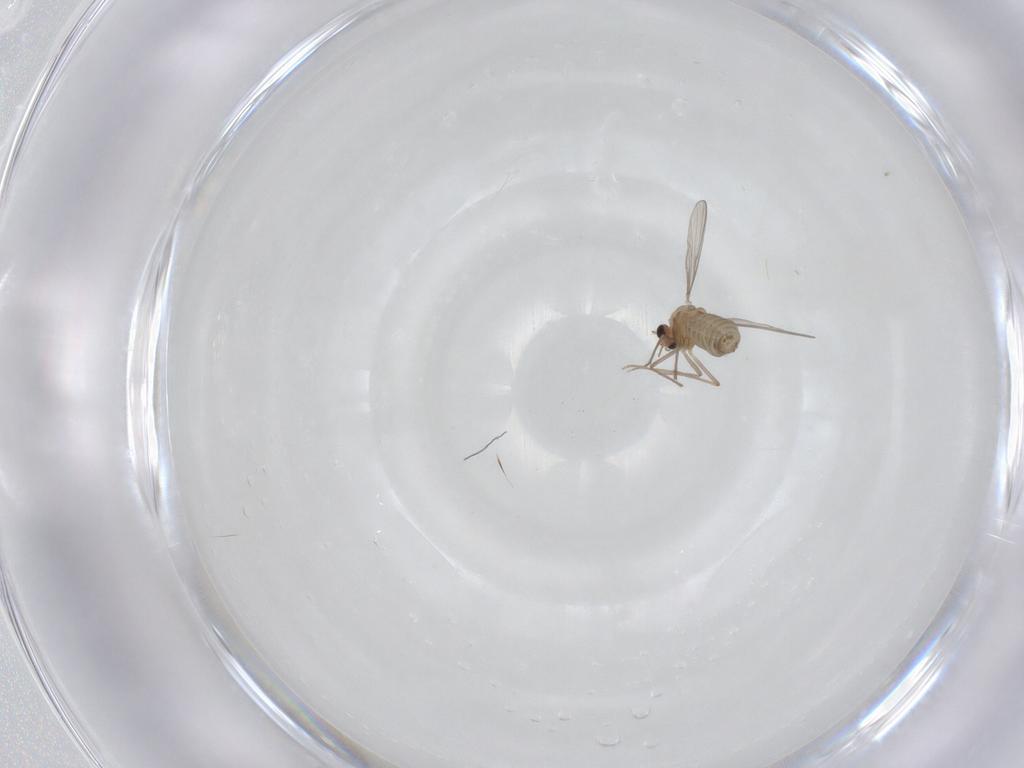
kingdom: Animalia
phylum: Arthropoda
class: Insecta
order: Diptera
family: Chironomidae
